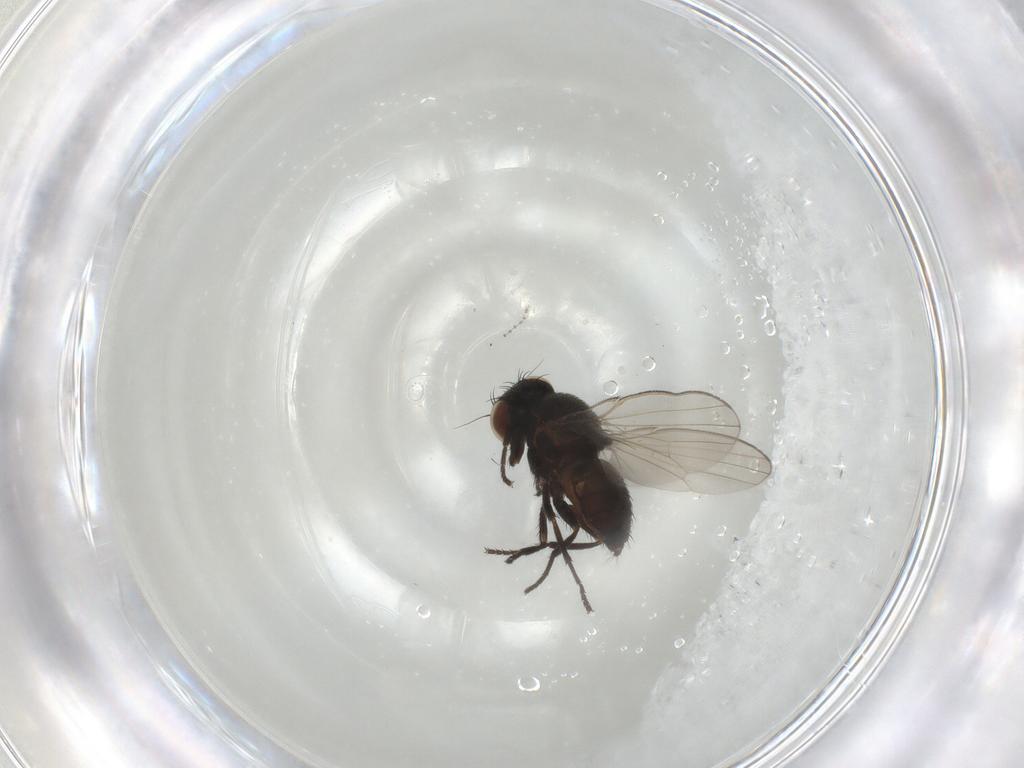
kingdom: Animalia
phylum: Arthropoda
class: Insecta
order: Diptera
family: Milichiidae
